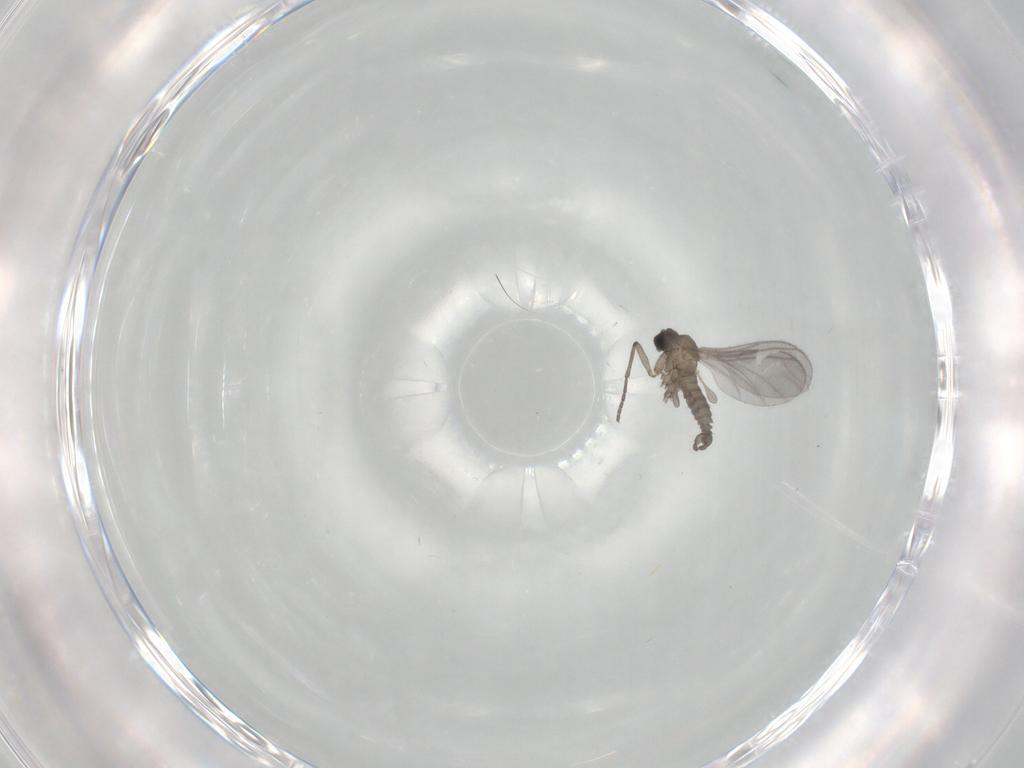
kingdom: Animalia
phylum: Arthropoda
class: Insecta
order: Diptera
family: Sciaridae
